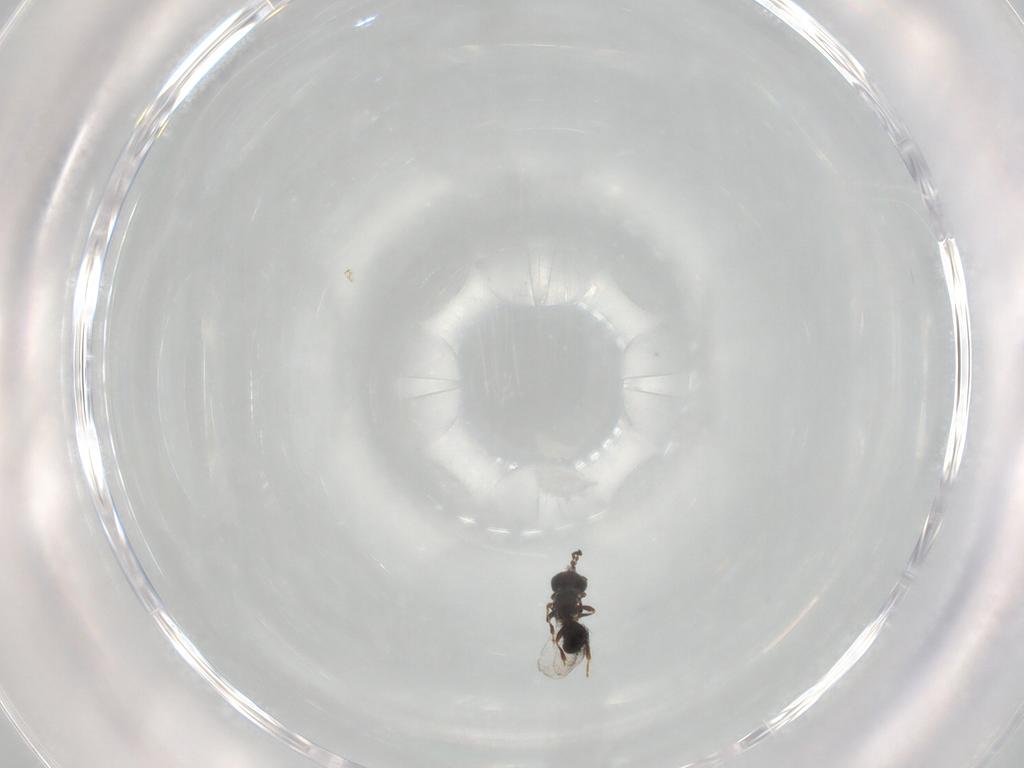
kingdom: Animalia
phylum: Arthropoda
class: Insecta
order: Hymenoptera
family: Platygastridae
